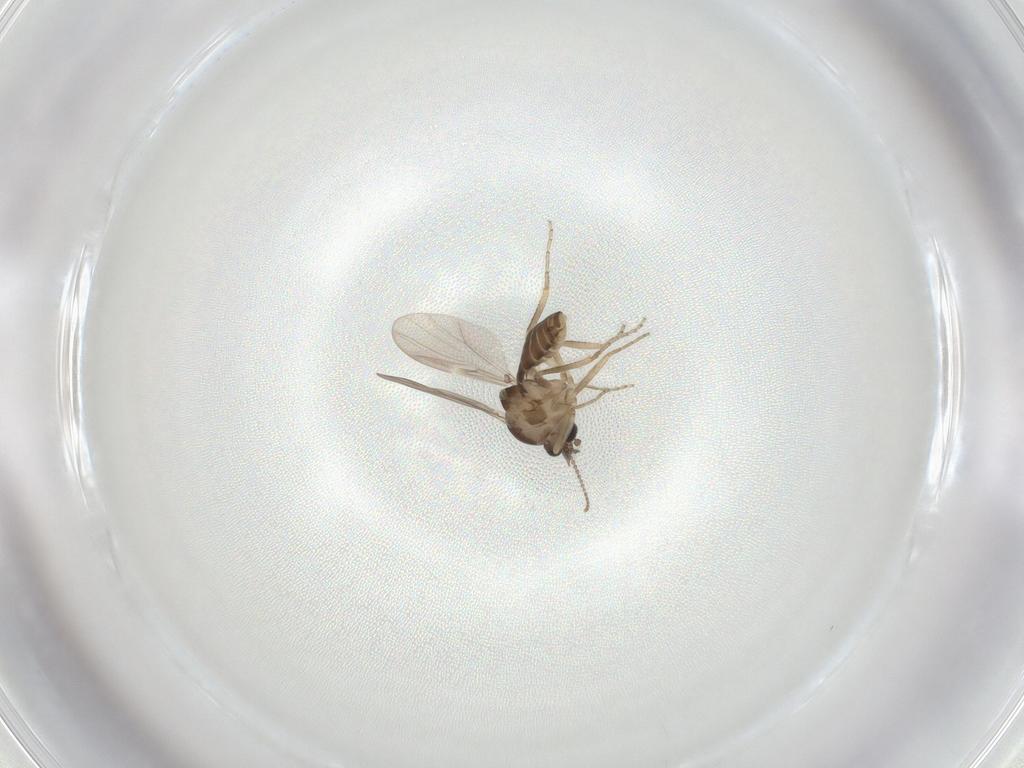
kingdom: Animalia
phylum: Arthropoda
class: Insecta
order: Diptera
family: Ceratopogonidae
